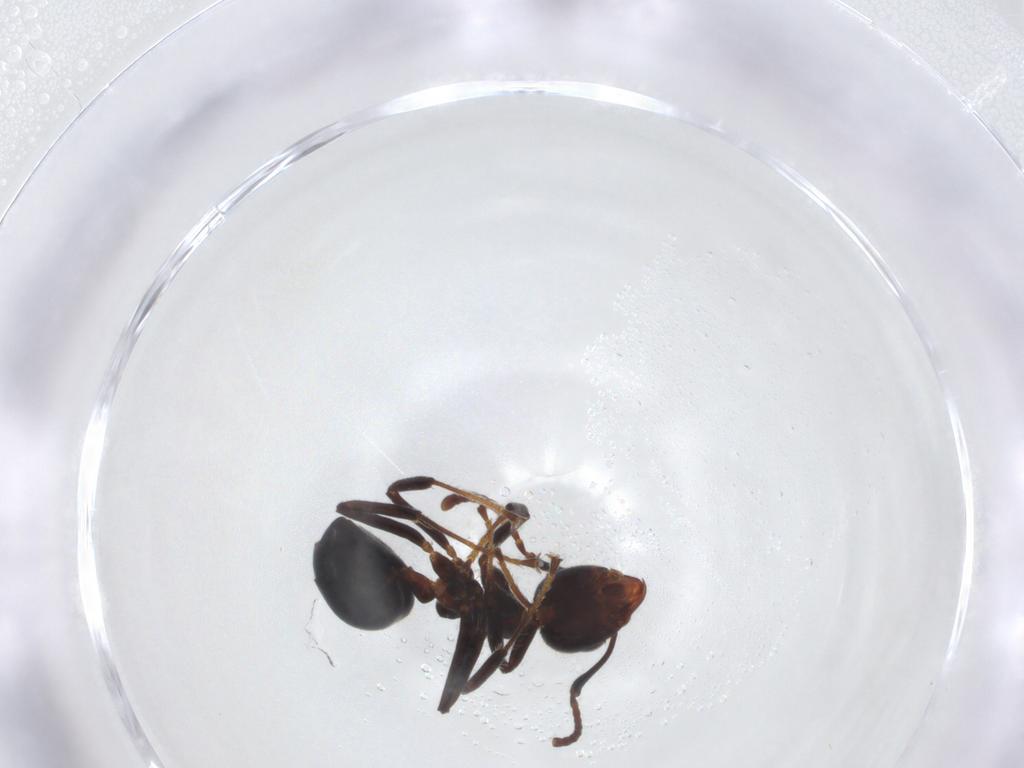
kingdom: Animalia
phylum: Arthropoda
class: Insecta
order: Hymenoptera
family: Formicidae
